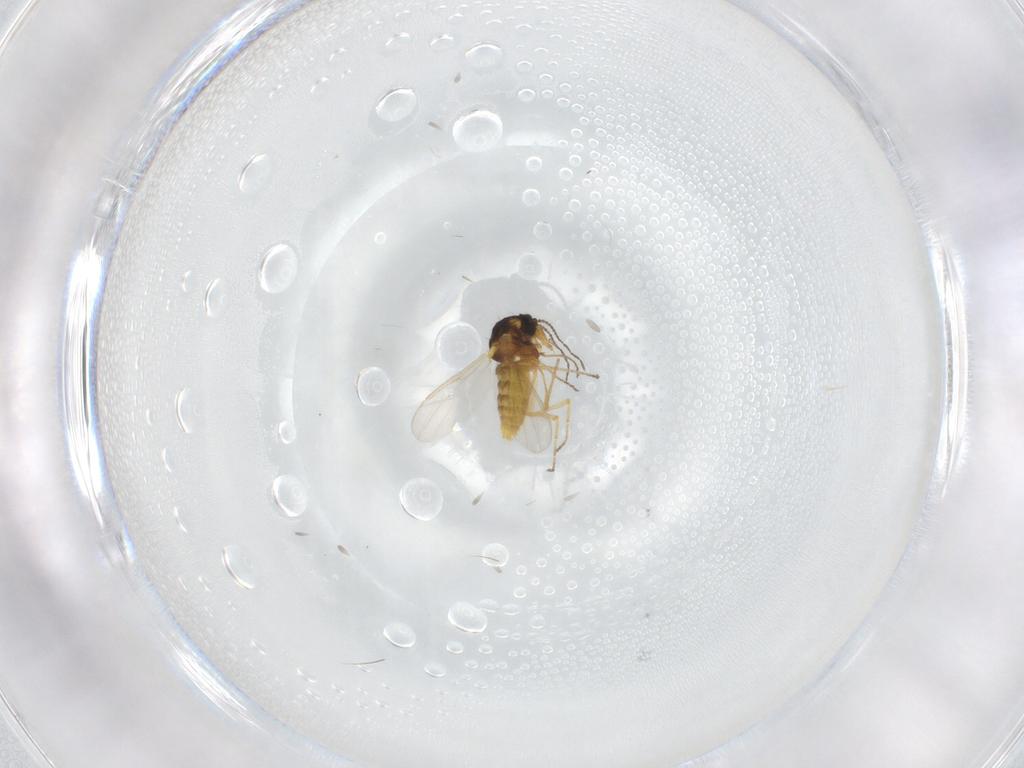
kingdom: Animalia
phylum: Arthropoda
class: Insecta
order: Diptera
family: Ceratopogonidae
